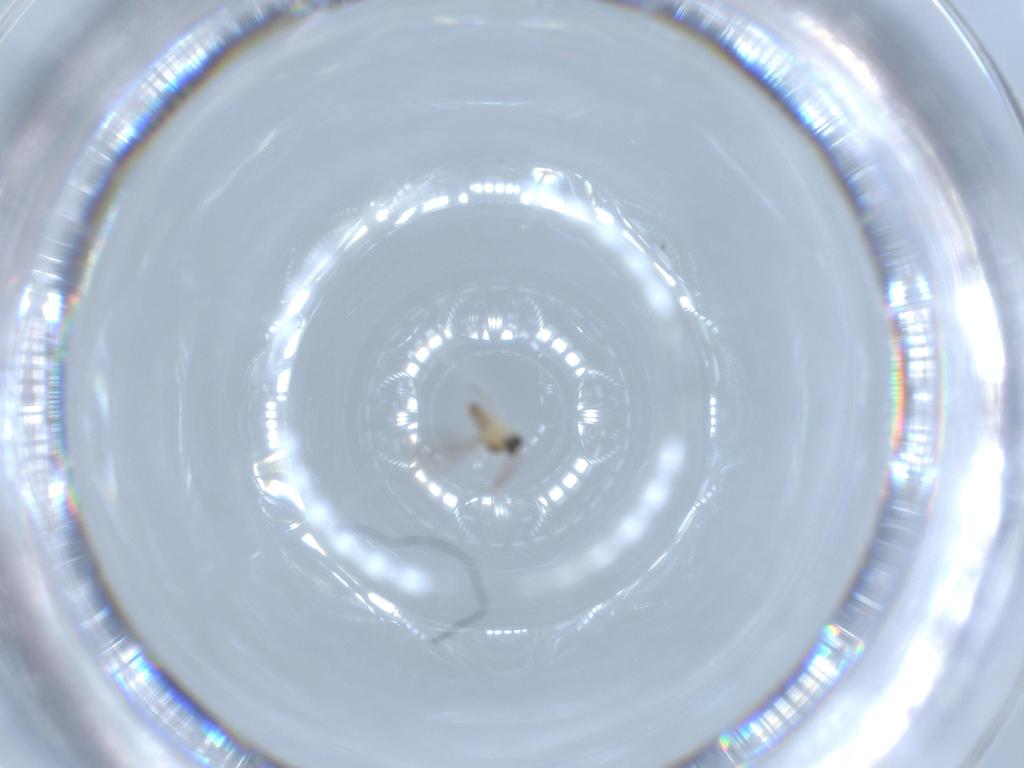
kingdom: Animalia
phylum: Arthropoda
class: Insecta
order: Diptera
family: Cecidomyiidae
